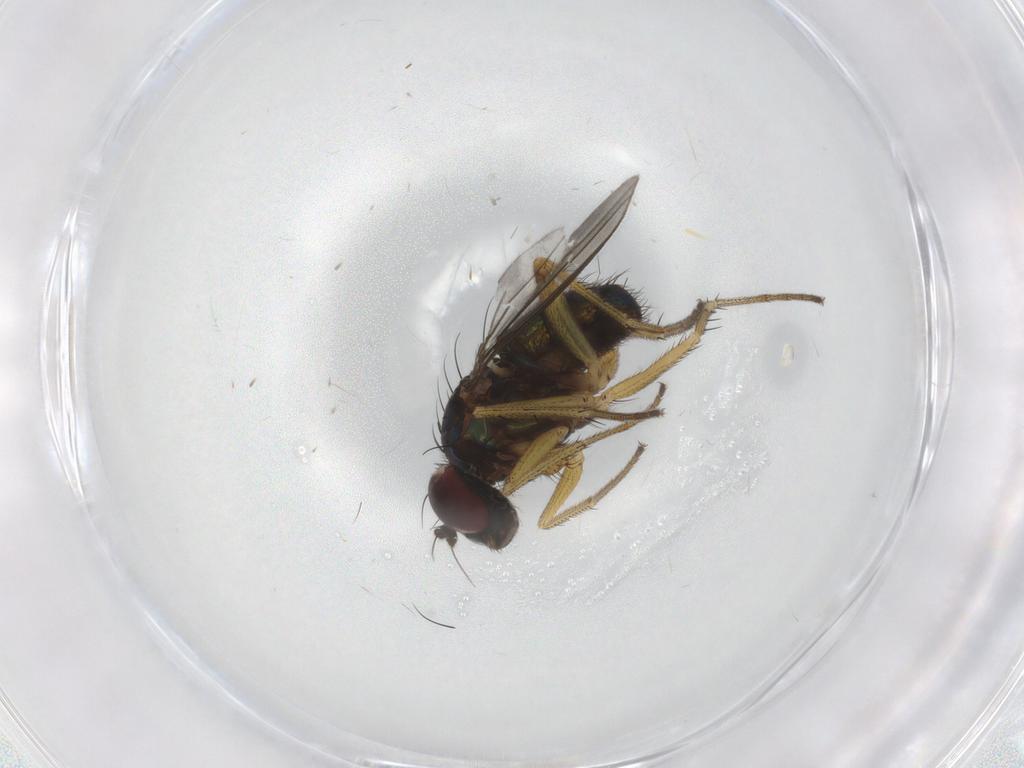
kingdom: Animalia
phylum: Arthropoda
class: Insecta
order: Diptera
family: Dolichopodidae
